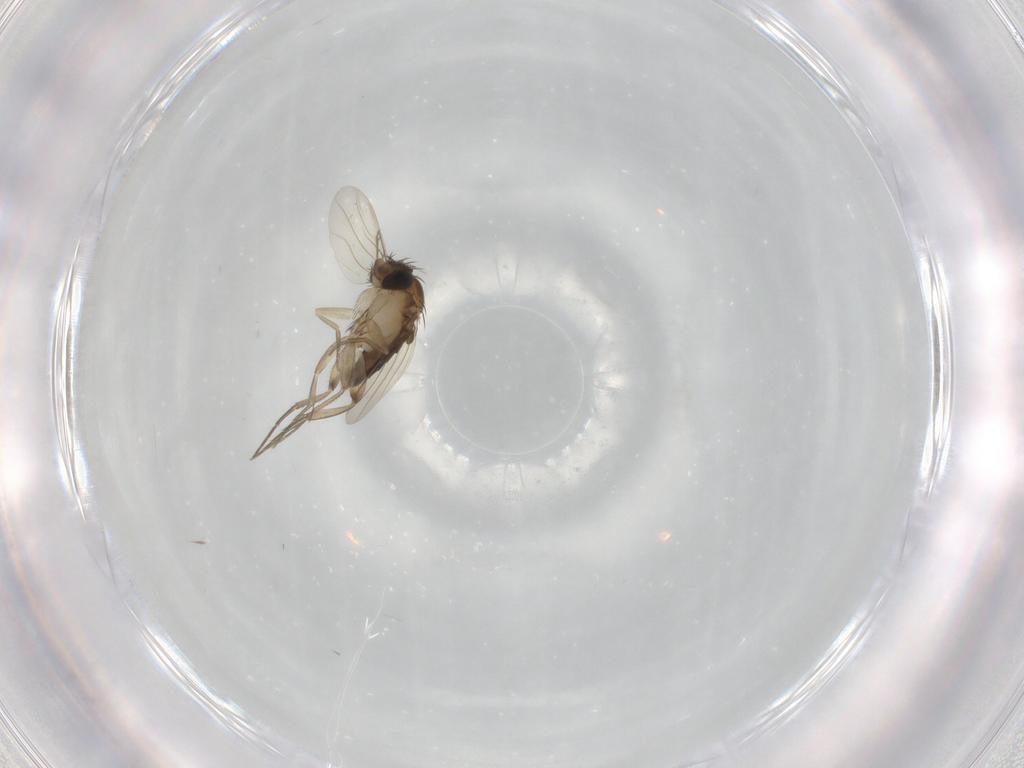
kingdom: Animalia
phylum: Arthropoda
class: Insecta
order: Diptera
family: Phoridae
